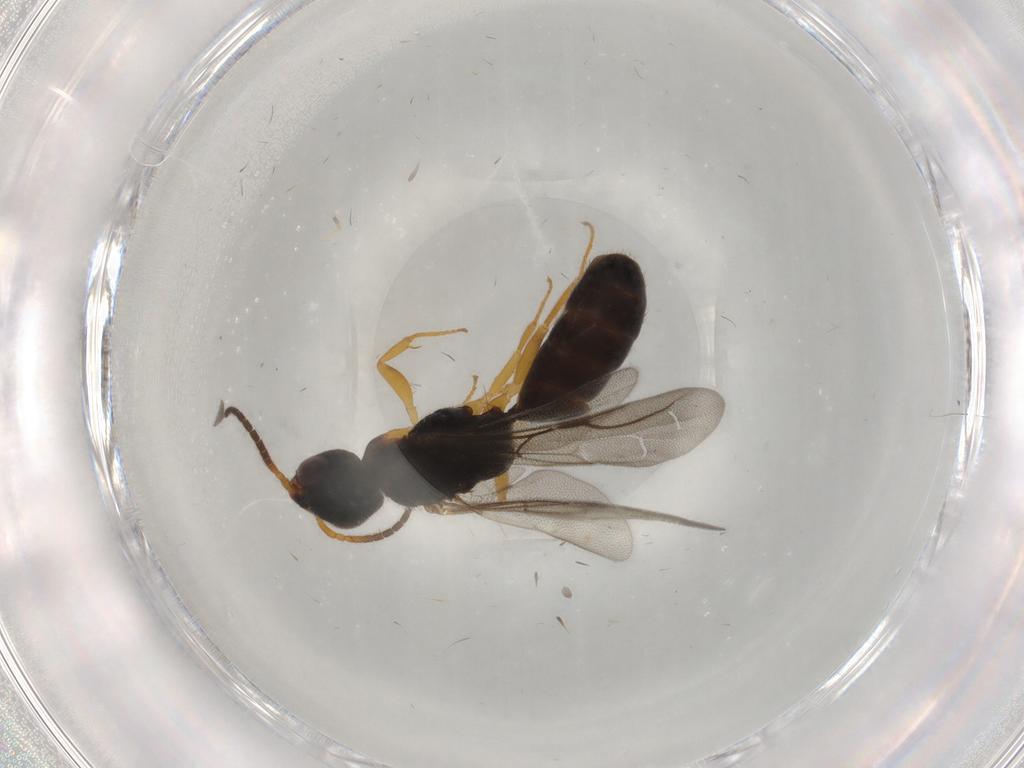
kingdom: Animalia
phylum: Arthropoda
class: Insecta
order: Hymenoptera
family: Bethylidae
